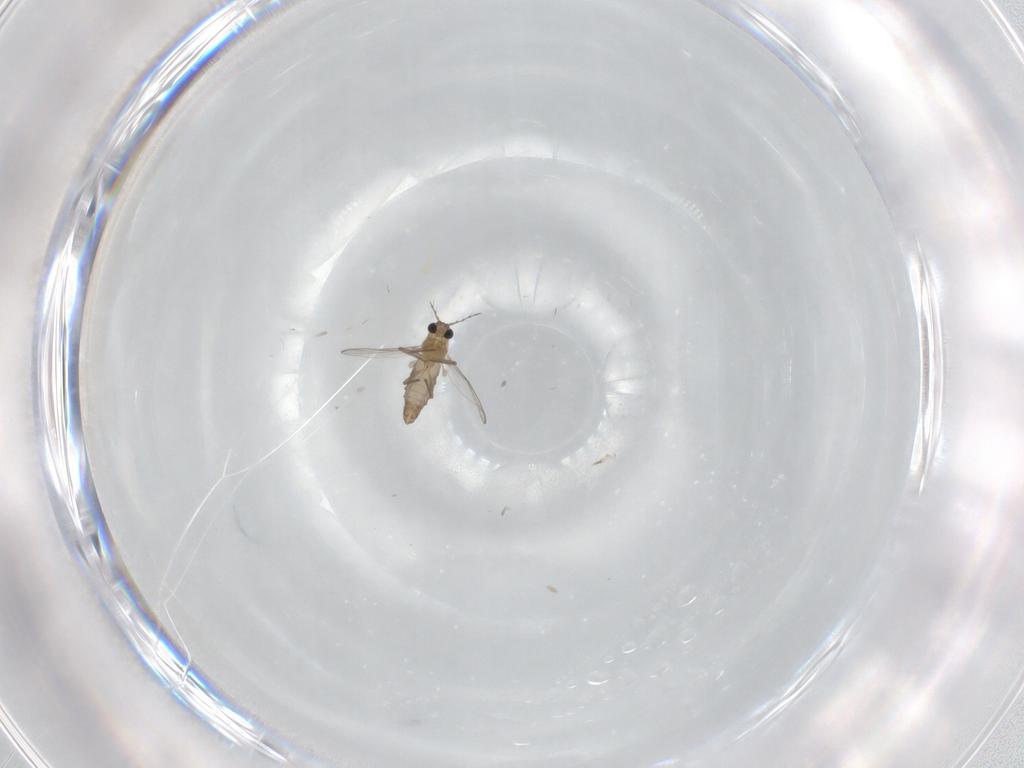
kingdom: Animalia
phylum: Arthropoda
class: Insecta
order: Diptera
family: Chironomidae
